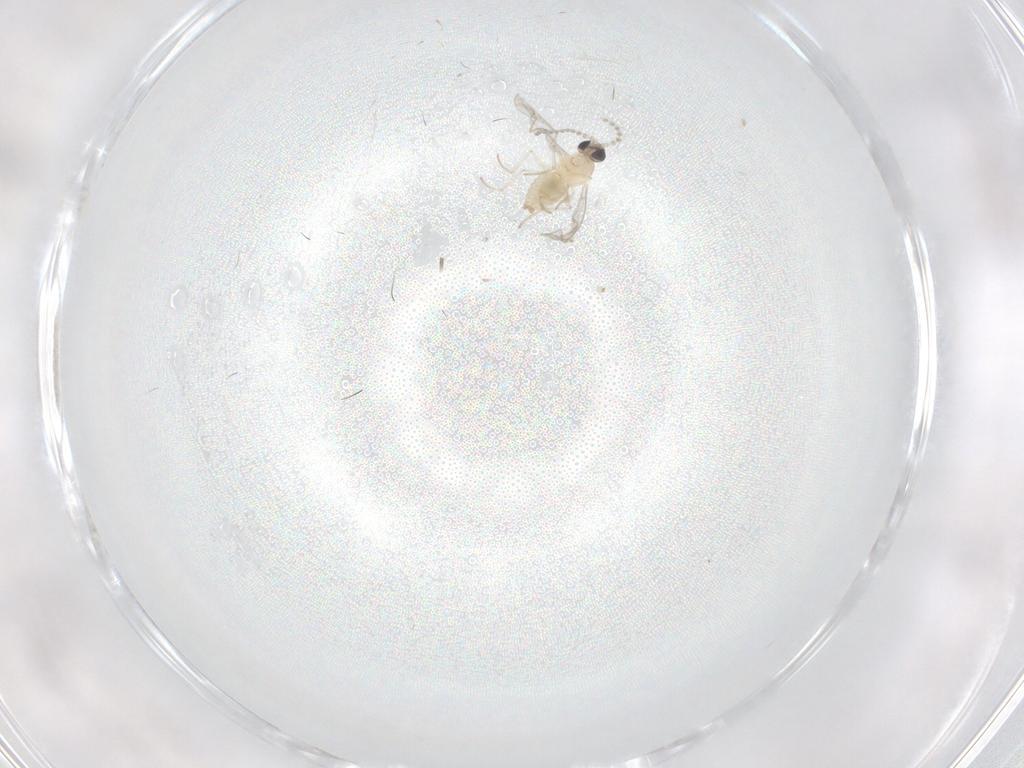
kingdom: Animalia
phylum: Arthropoda
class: Insecta
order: Diptera
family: Cecidomyiidae
